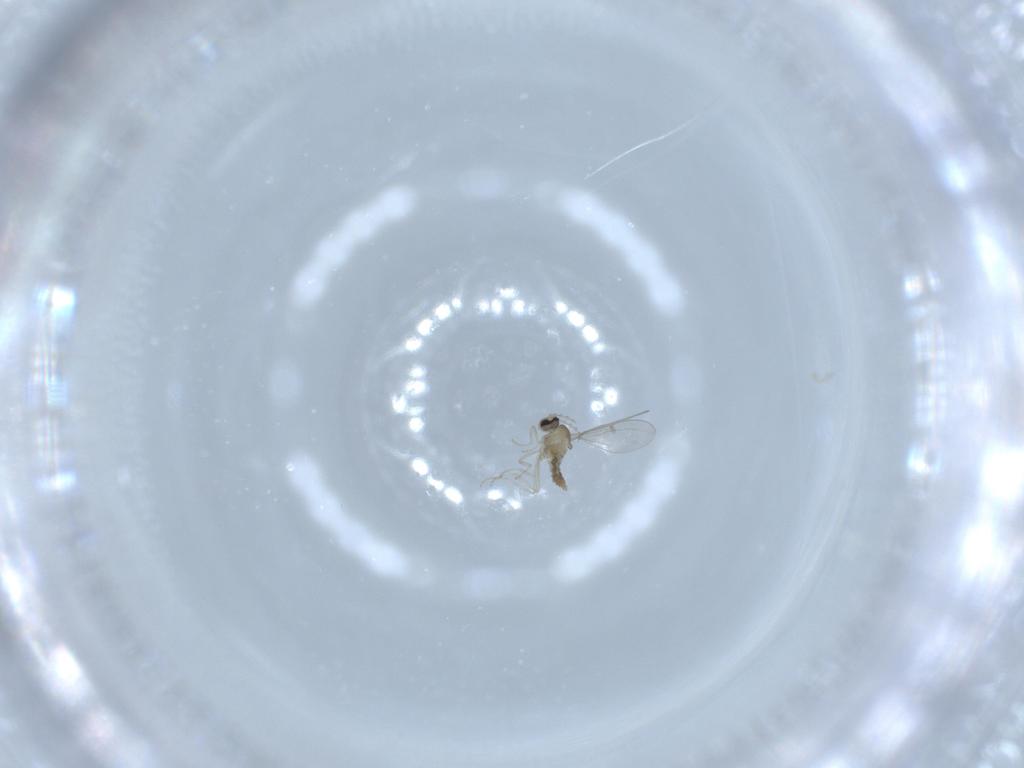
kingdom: Animalia
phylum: Arthropoda
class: Insecta
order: Diptera
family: Cecidomyiidae
